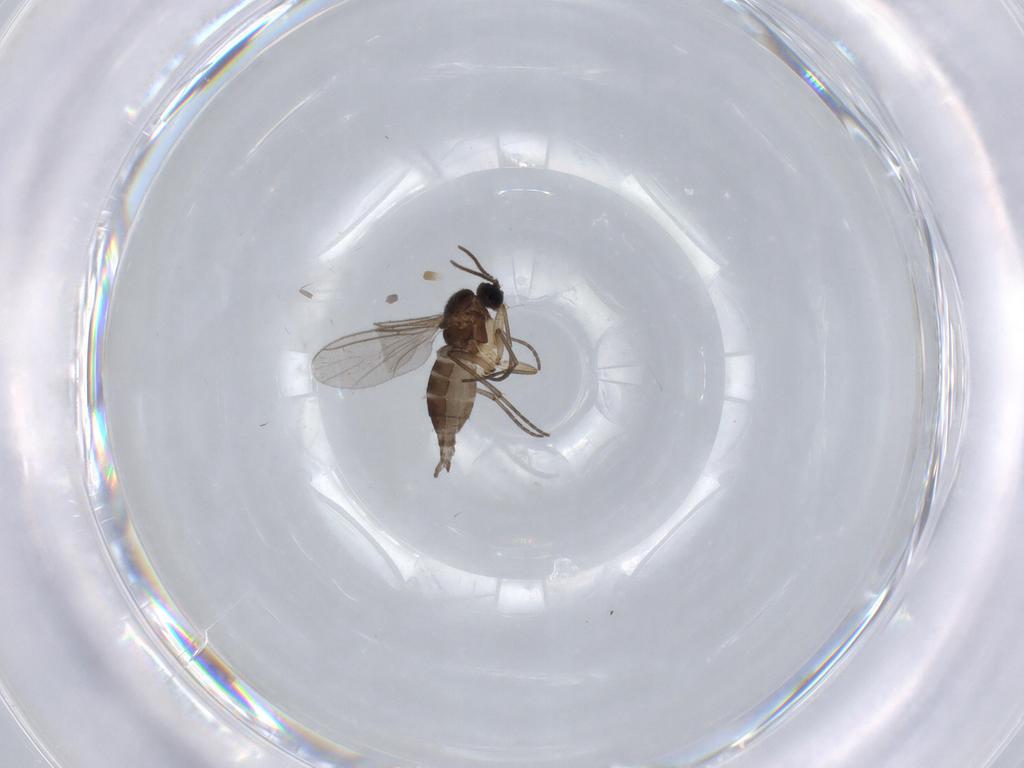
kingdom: Animalia
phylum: Arthropoda
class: Insecta
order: Diptera
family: Sciaridae
